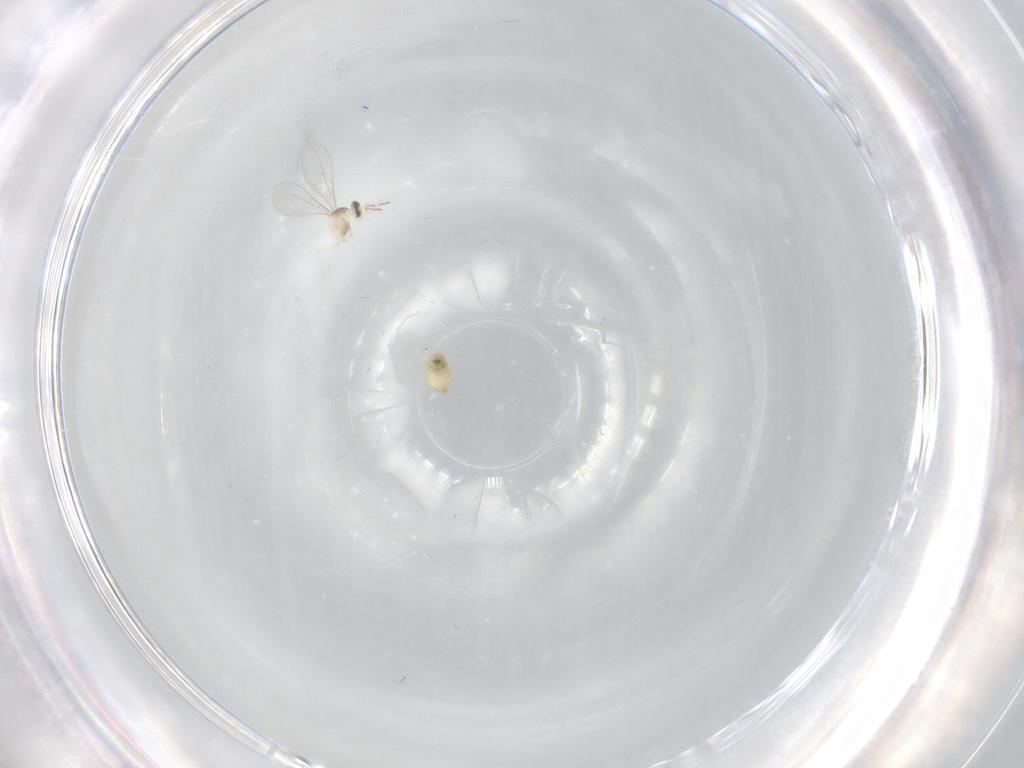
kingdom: Animalia
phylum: Arthropoda
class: Insecta
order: Diptera
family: Cecidomyiidae
